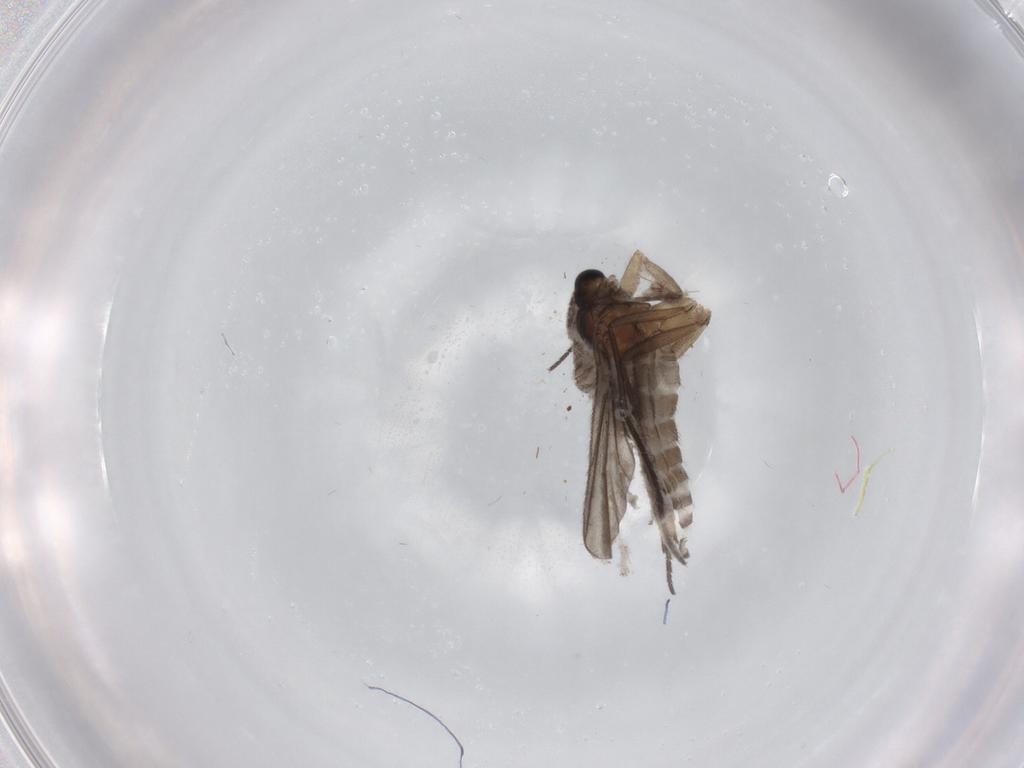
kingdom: Animalia
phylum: Arthropoda
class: Insecta
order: Diptera
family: Sciaridae
